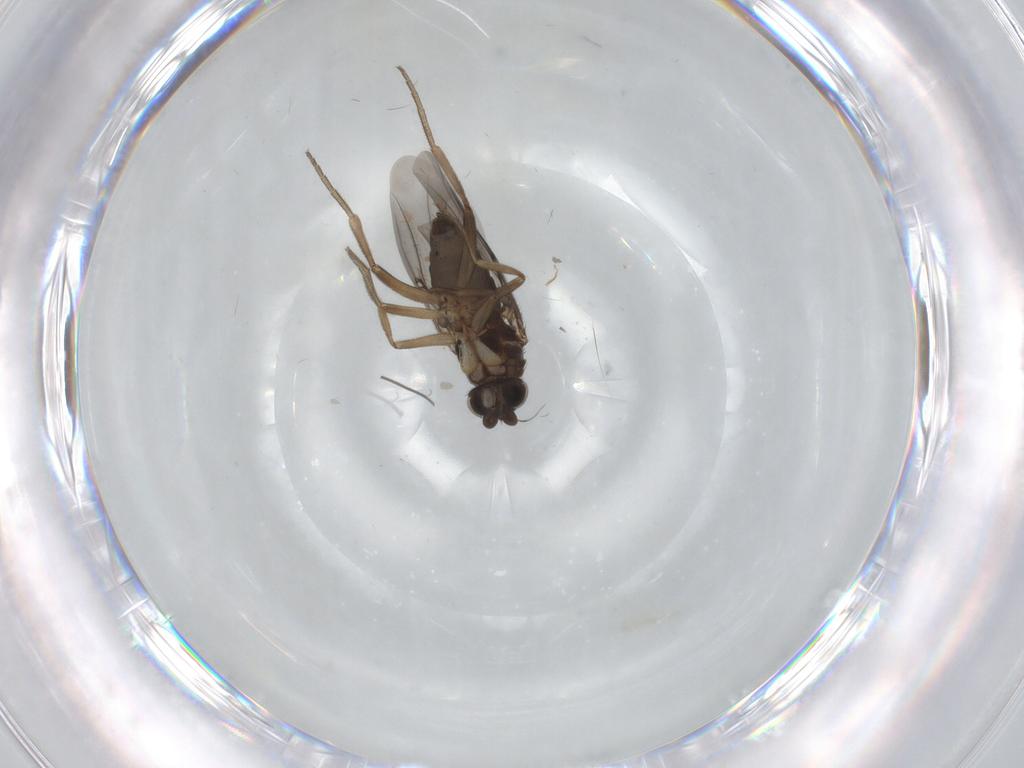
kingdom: Animalia
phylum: Arthropoda
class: Insecta
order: Diptera
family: Phoridae
